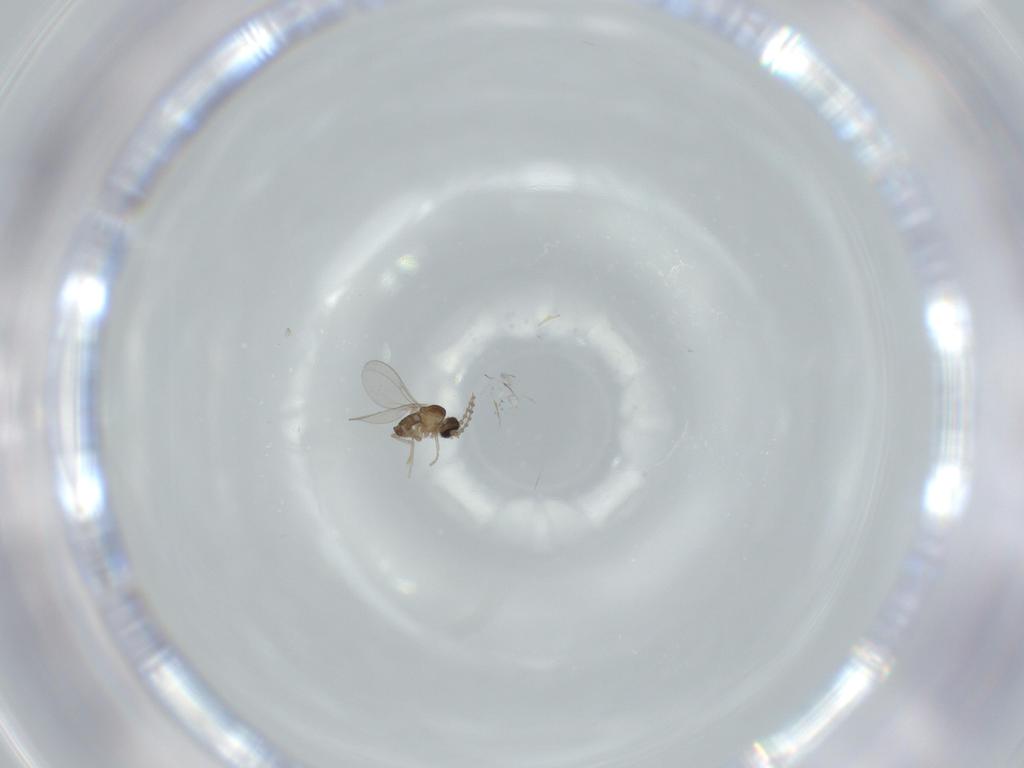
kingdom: Animalia
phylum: Arthropoda
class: Insecta
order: Diptera
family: Cecidomyiidae
